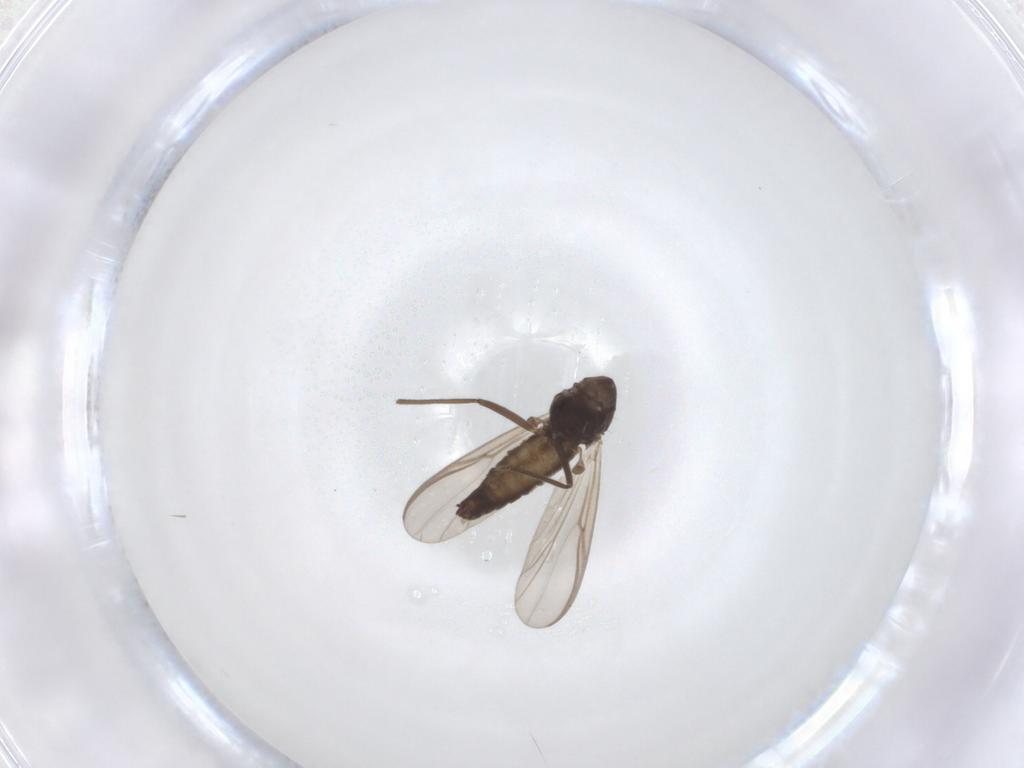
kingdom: Animalia
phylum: Arthropoda
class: Insecta
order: Diptera
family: Chironomidae
